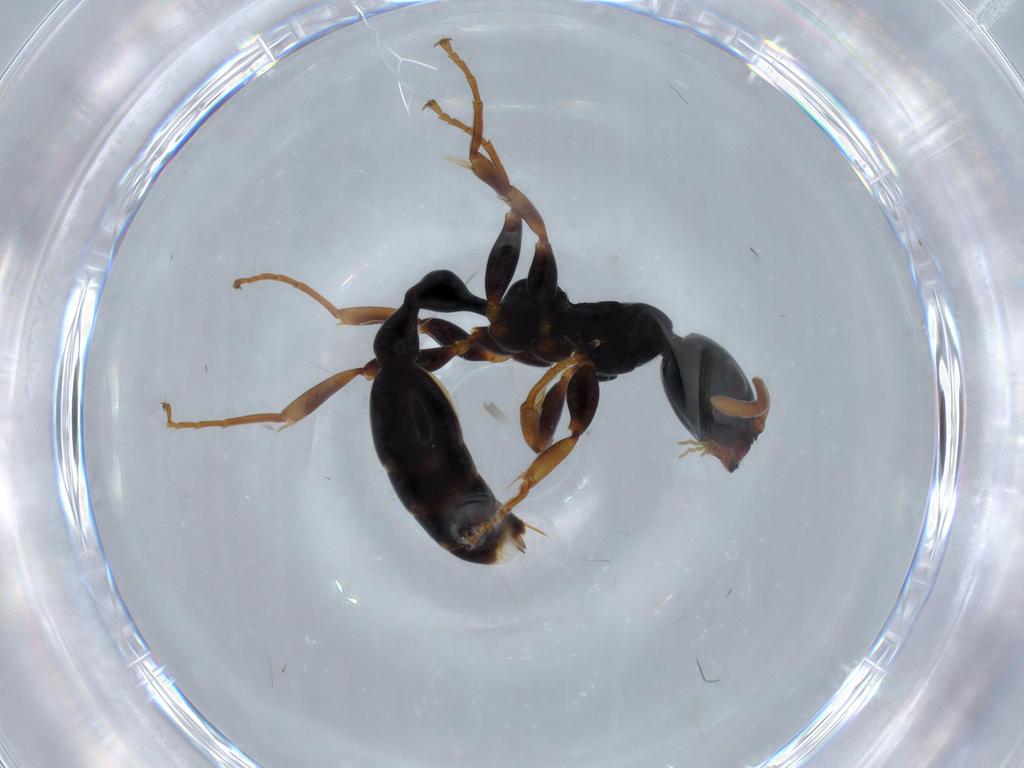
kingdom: Animalia
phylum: Arthropoda
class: Insecta
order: Hymenoptera
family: Formicidae
